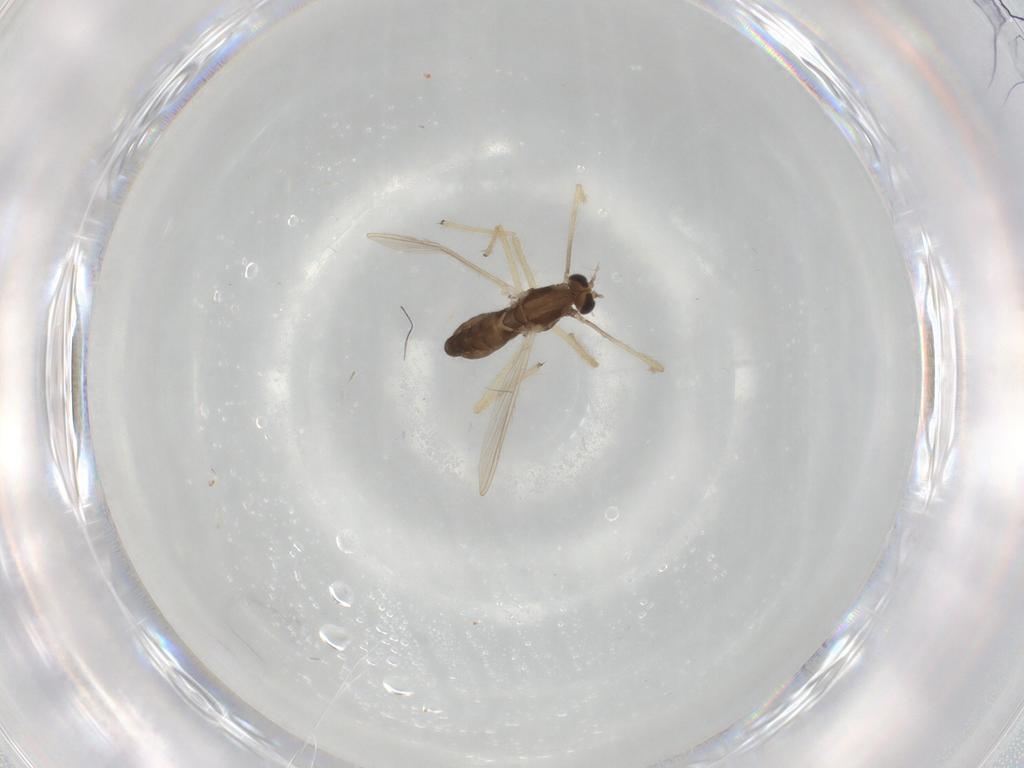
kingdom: Animalia
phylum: Arthropoda
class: Insecta
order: Diptera
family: Chironomidae
